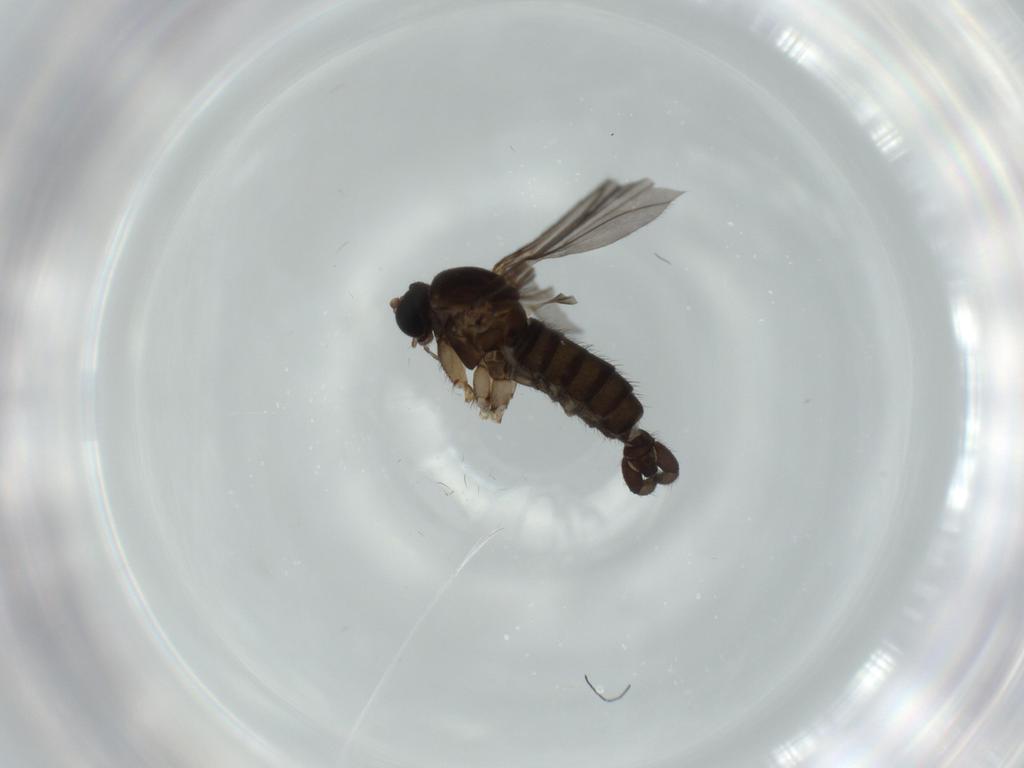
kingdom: Animalia
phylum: Arthropoda
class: Insecta
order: Diptera
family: Sciaridae
